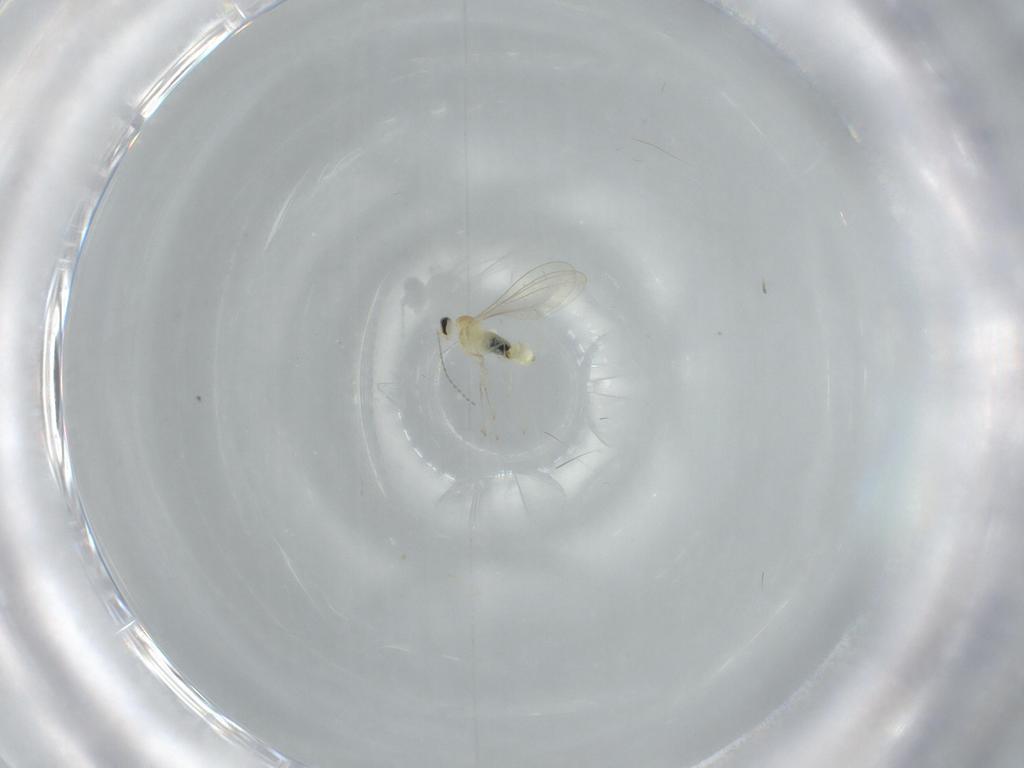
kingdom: Animalia
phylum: Arthropoda
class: Insecta
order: Diptera
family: Cecidomyiidae
